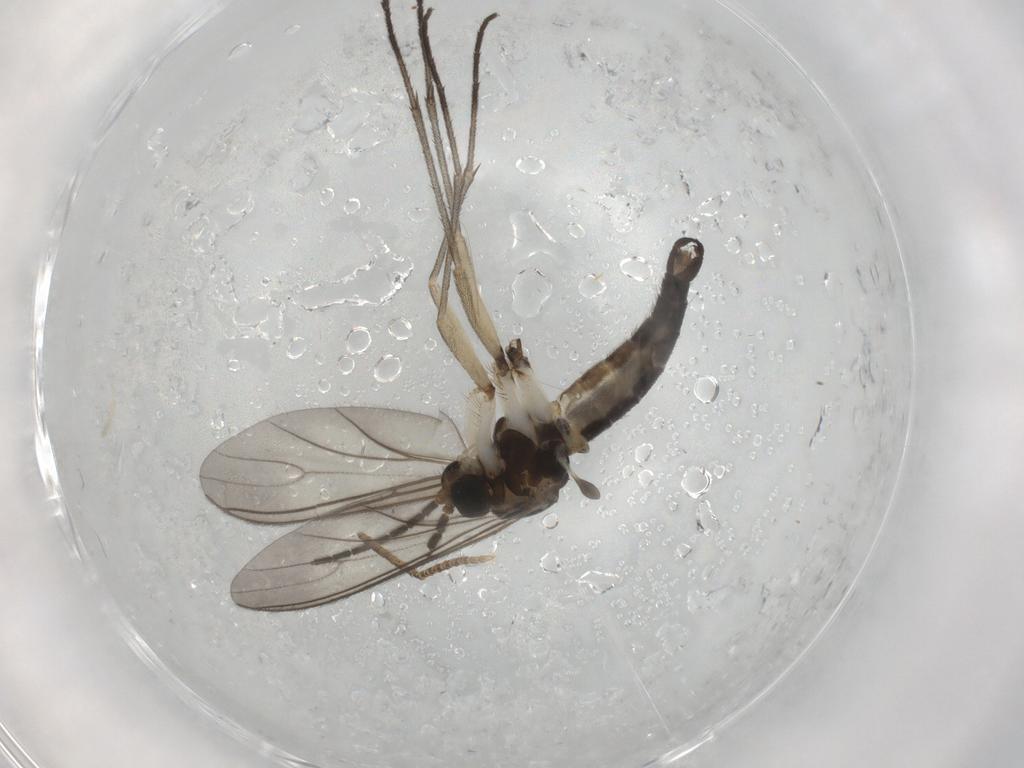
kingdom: Animalia
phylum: Arthropoda
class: Insecta
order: Diptera
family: Sciaridae
